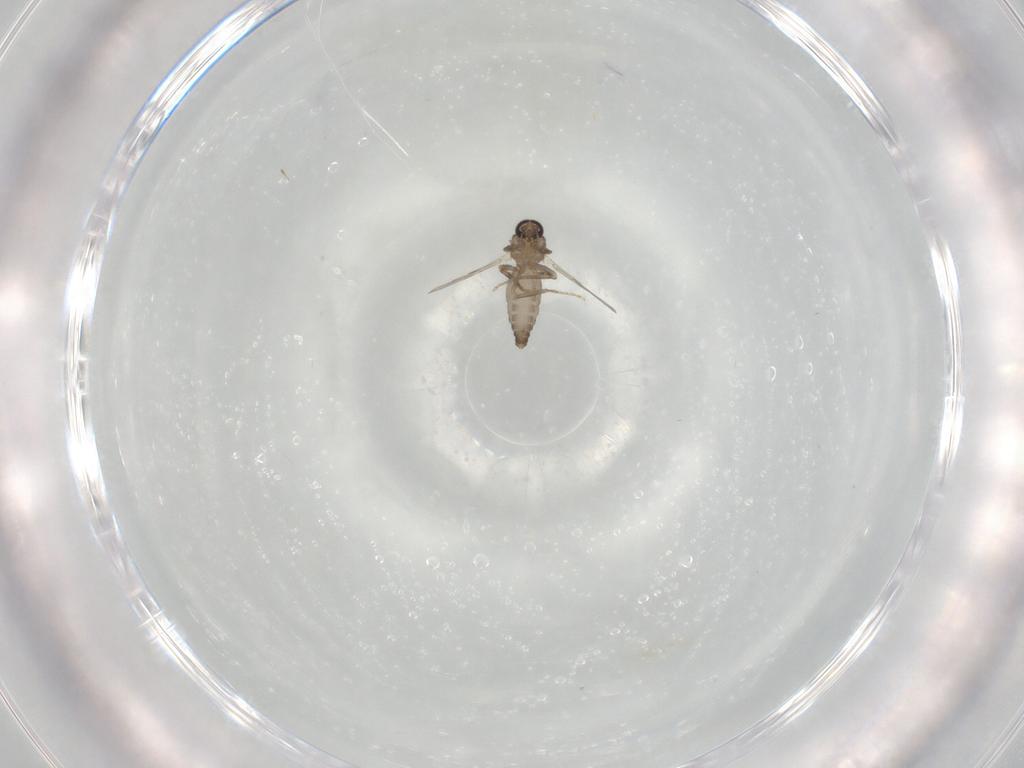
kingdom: Animalia
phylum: Arthropoda
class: Insecta
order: Diptera
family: Ceratopogonidae
